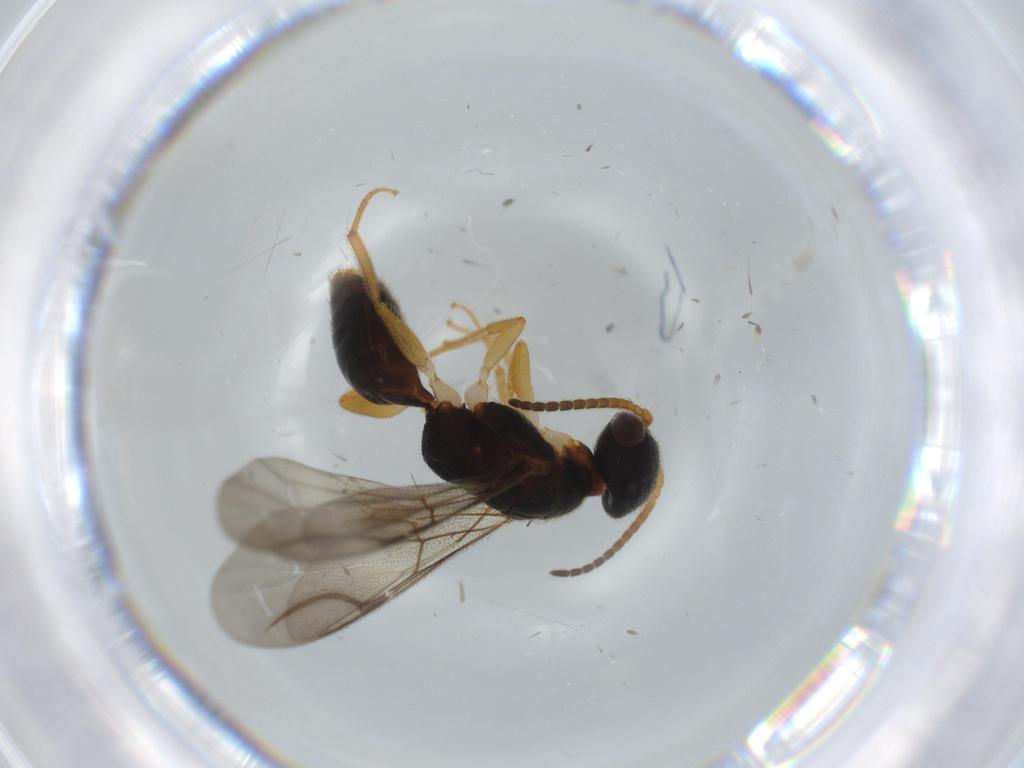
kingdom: Animalia
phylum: Arthropoda
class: Insecta
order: Hymenoptera
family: Bethylidae
